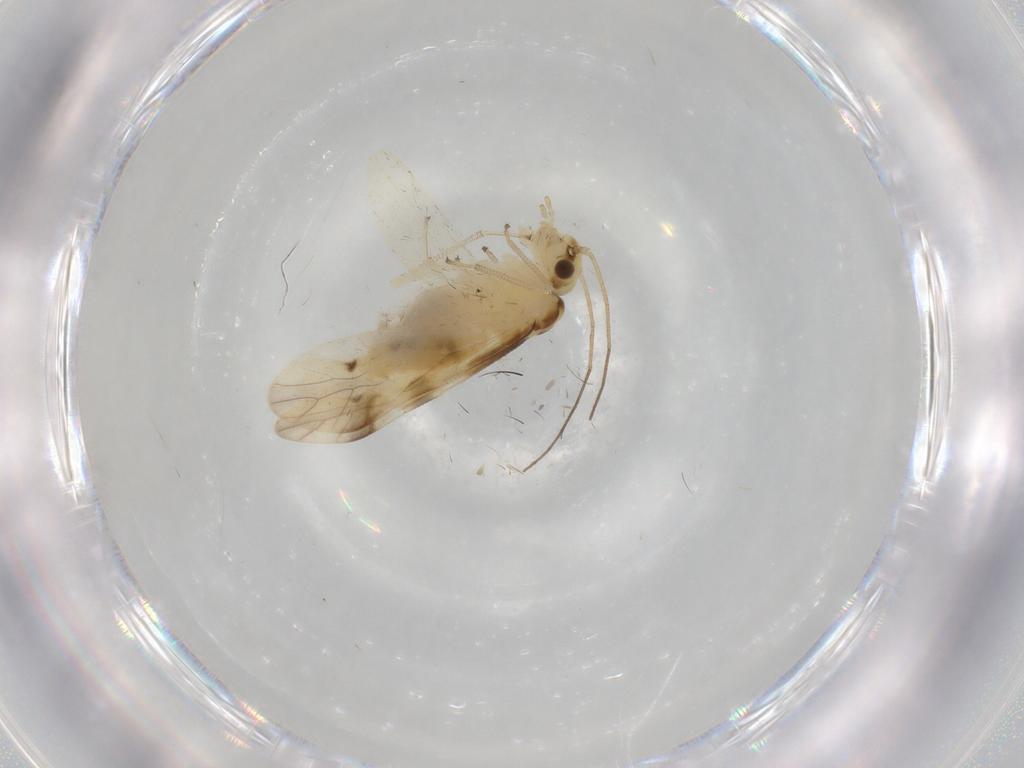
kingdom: Animalia
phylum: Arthropoda
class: Insecta
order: Psocodea
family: Caeciliusidae
